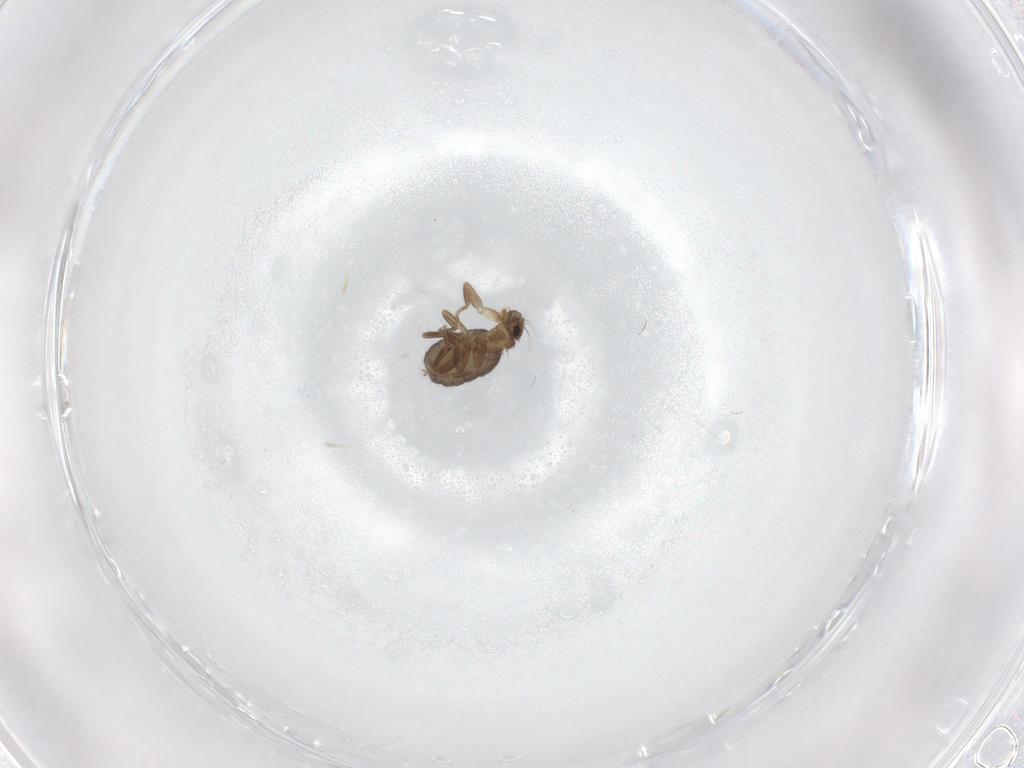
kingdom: Animalia
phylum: Arthropoda
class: Insecta
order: Diptera
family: Phoridae
